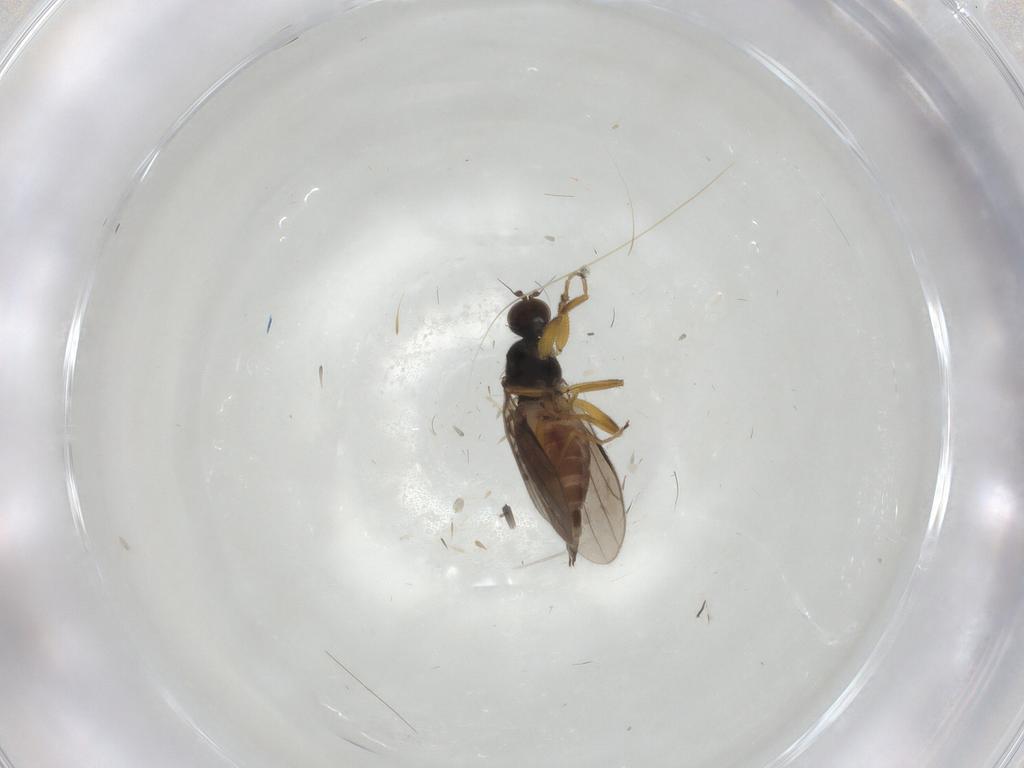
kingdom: Animalia
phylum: Arthropoda
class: Insecta
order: Diptera
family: Hybotidae
